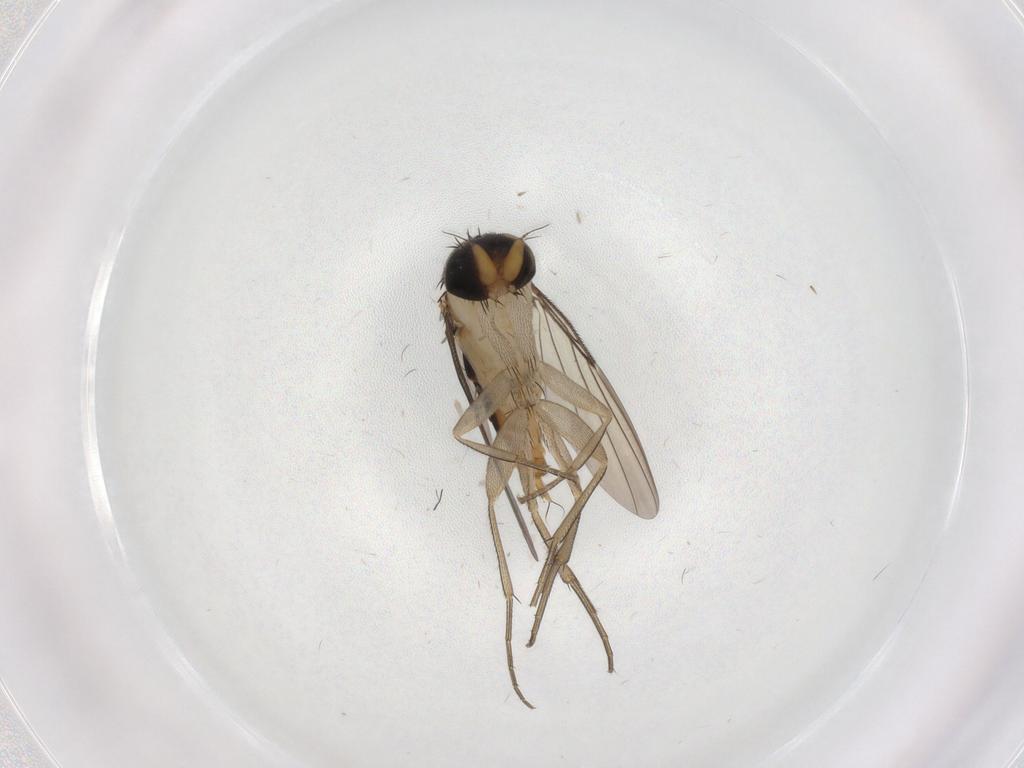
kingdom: Animalia
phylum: Arthropoda
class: Insecta
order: Diptera
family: Phoridae
